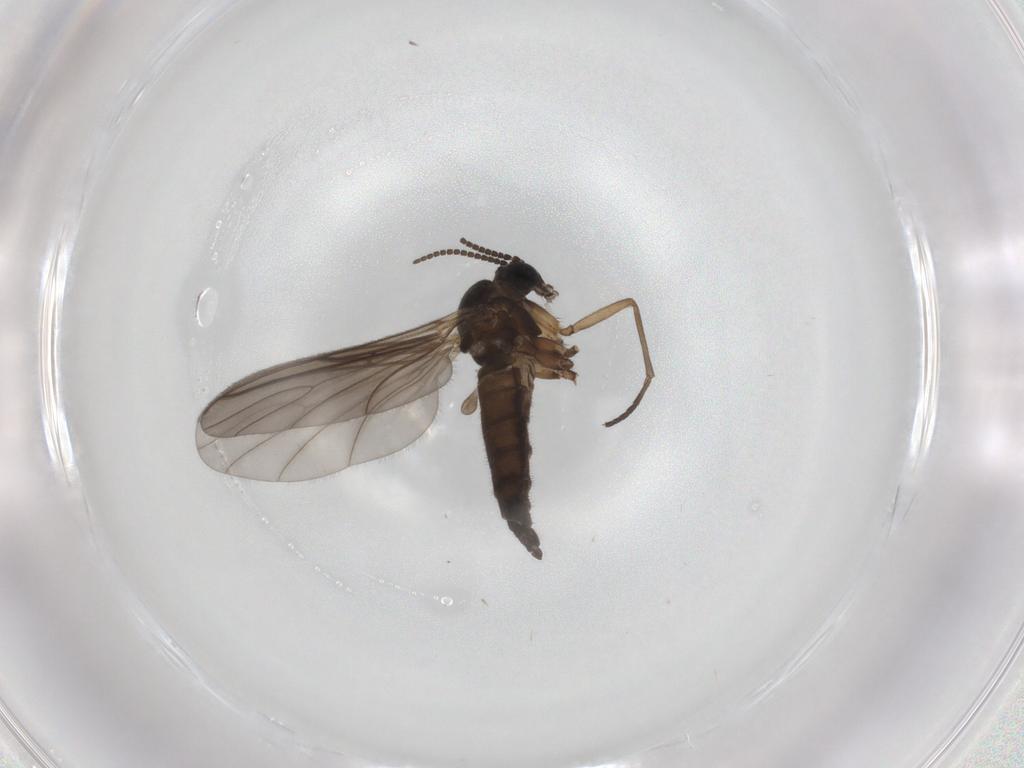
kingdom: Animalia
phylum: Arthropoda
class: Insecta
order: Diptera
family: Sciaridae
